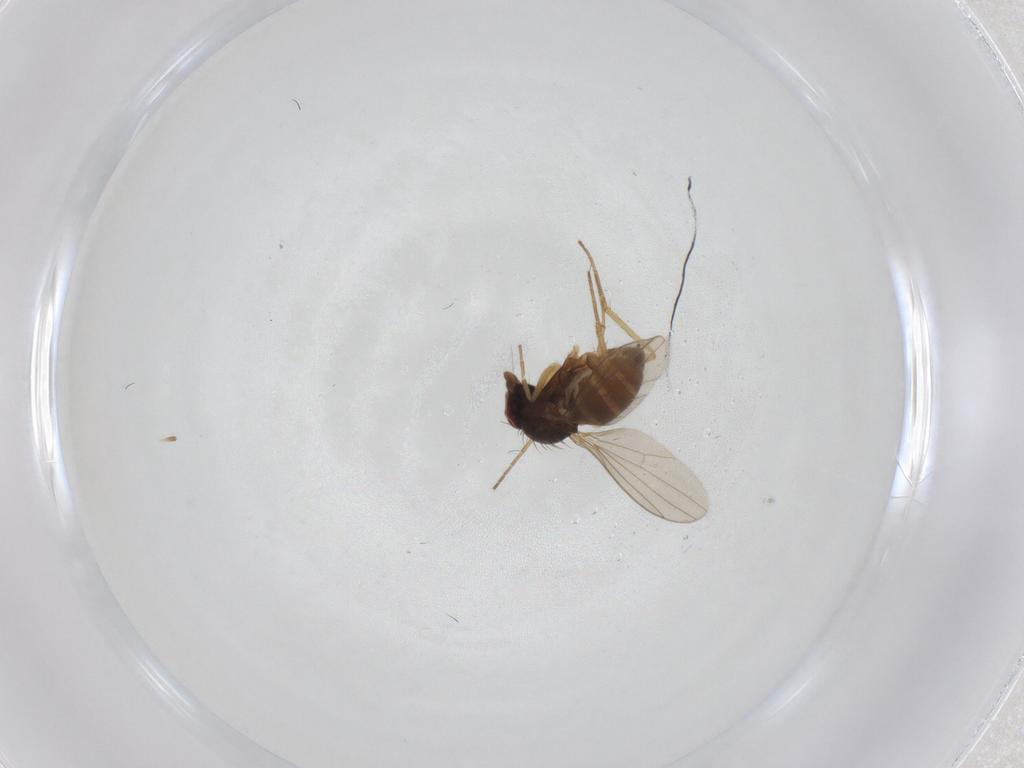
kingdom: Animalia
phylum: Arthropoda
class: Insecta
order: Diptera
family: Dolichopodidae
